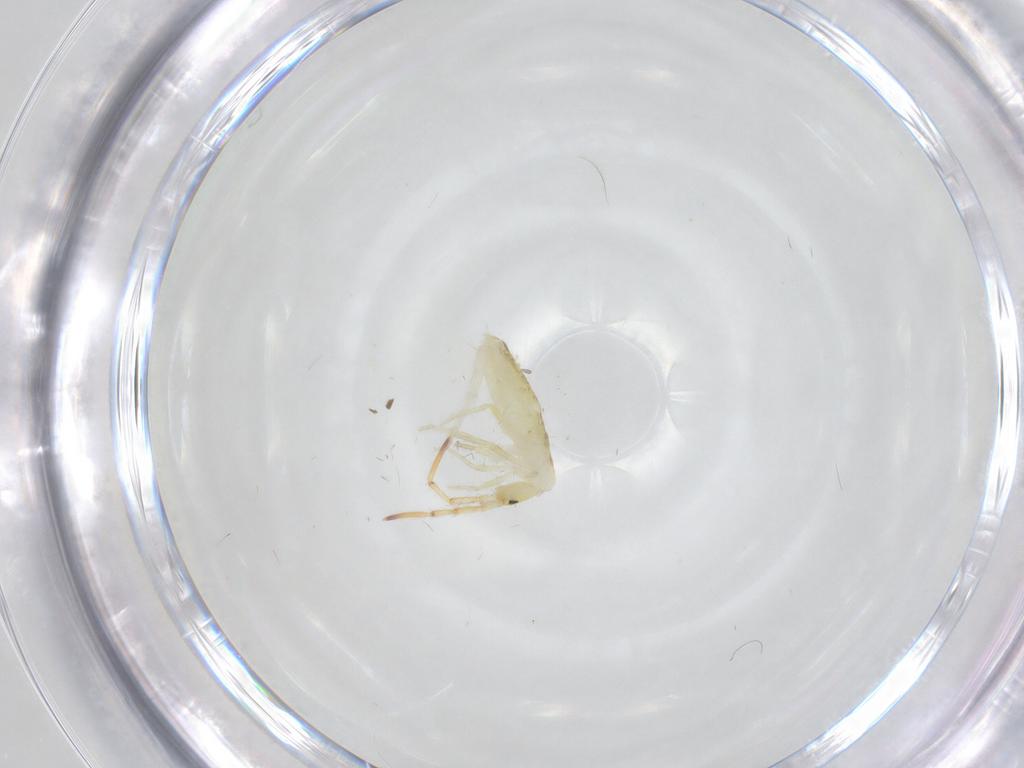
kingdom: Animalia
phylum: Arthropoda
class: Collembola
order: Entomobryomorpha
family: Entomobryidae
